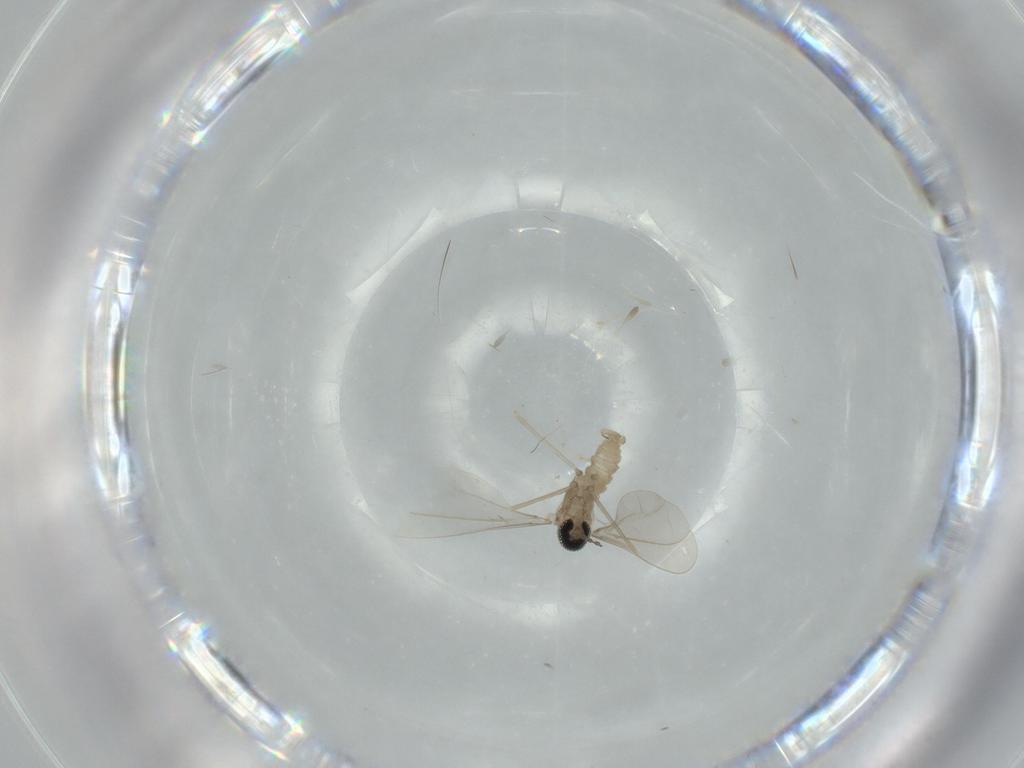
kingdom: Animalia
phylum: Arthropoda
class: Insecta
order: Diptera
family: Cecidomyiidae
